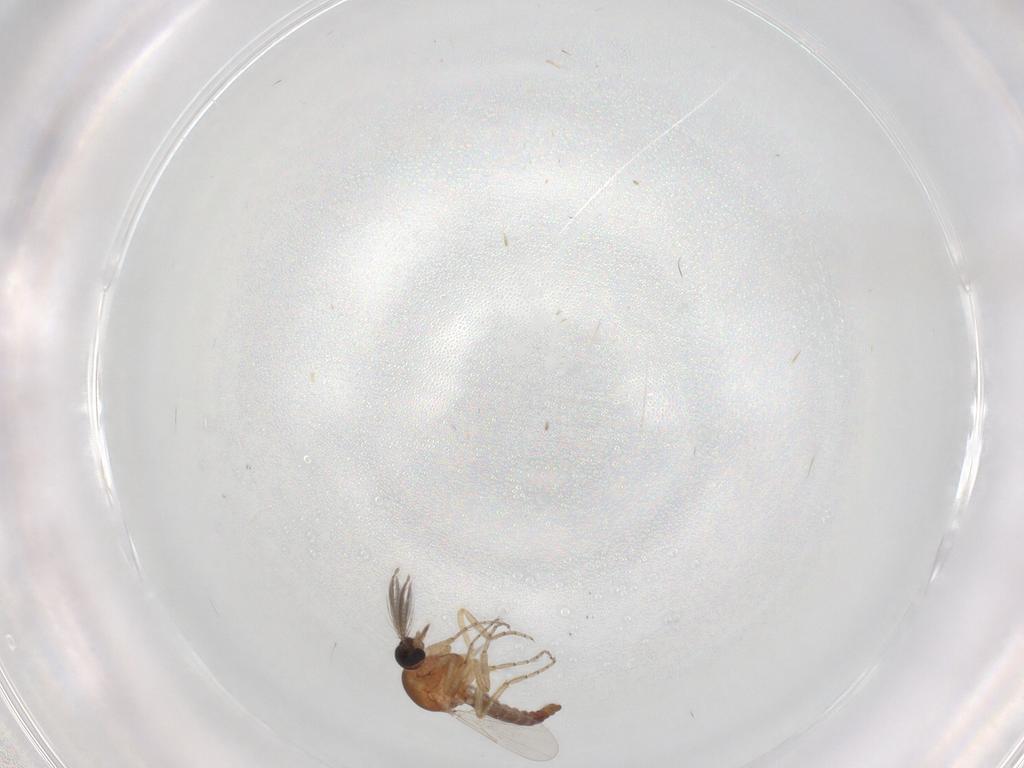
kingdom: Animalia
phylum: Arthropoda
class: Insecta
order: Diptera
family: Ceratopogonidae
